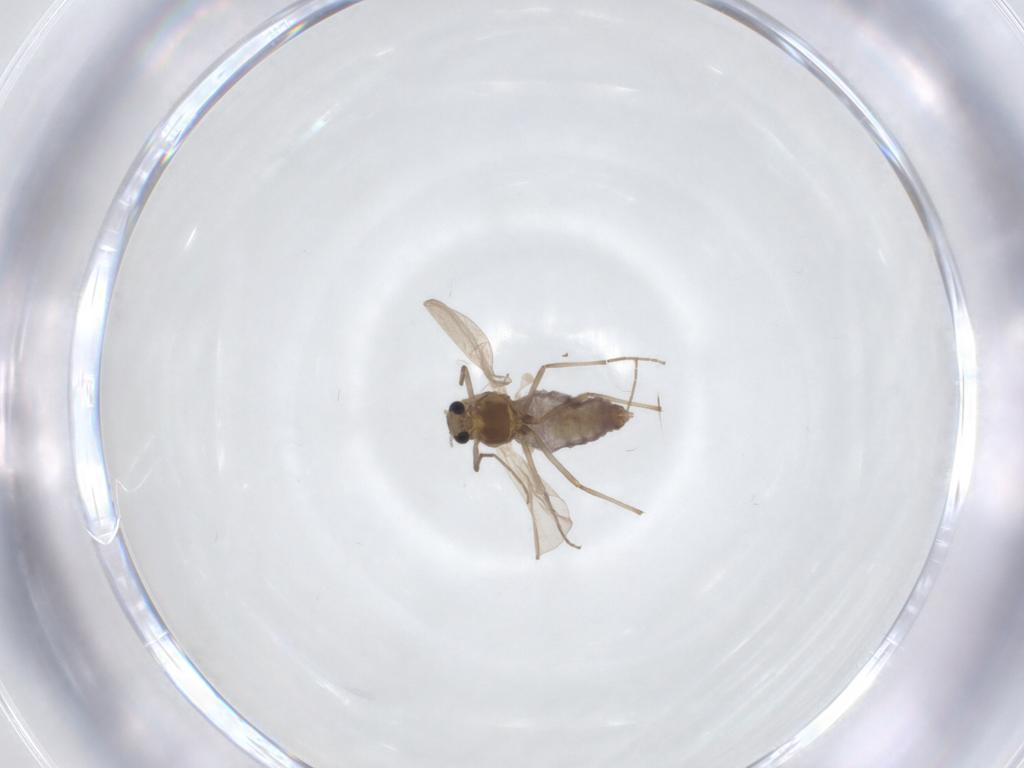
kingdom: Animalia
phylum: Arthropoda
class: Insecta
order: Diptera
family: Chironomidae
